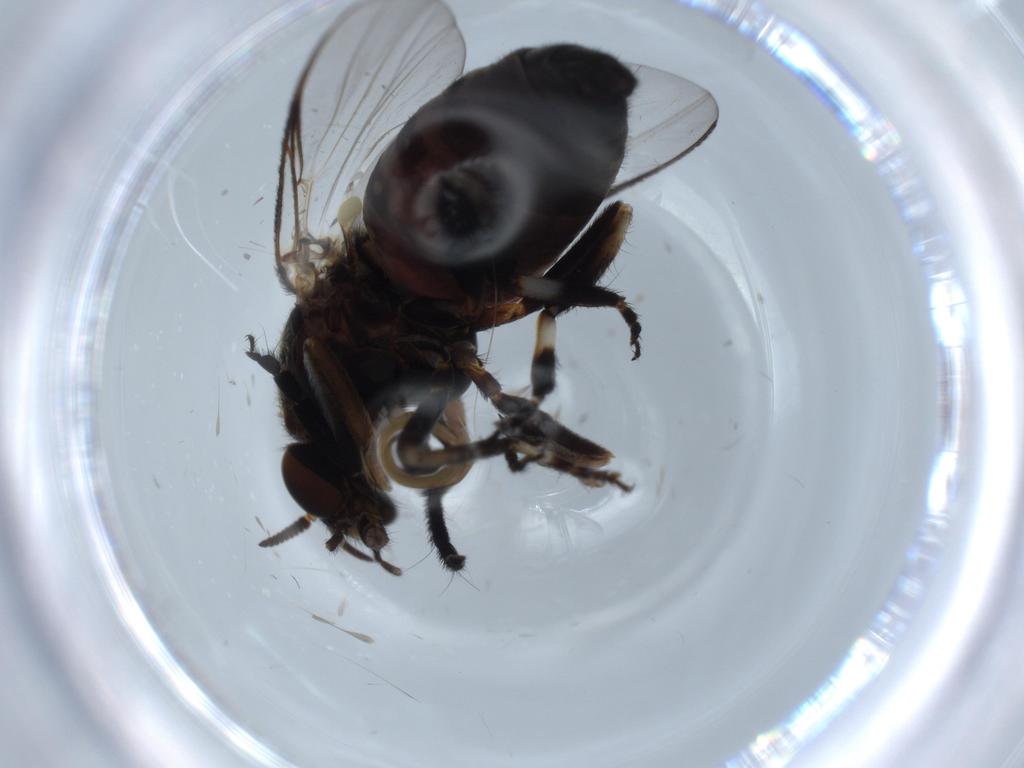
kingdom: Animalia
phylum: Arthropoda
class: Insecta
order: Diptera
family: Simuliidae
